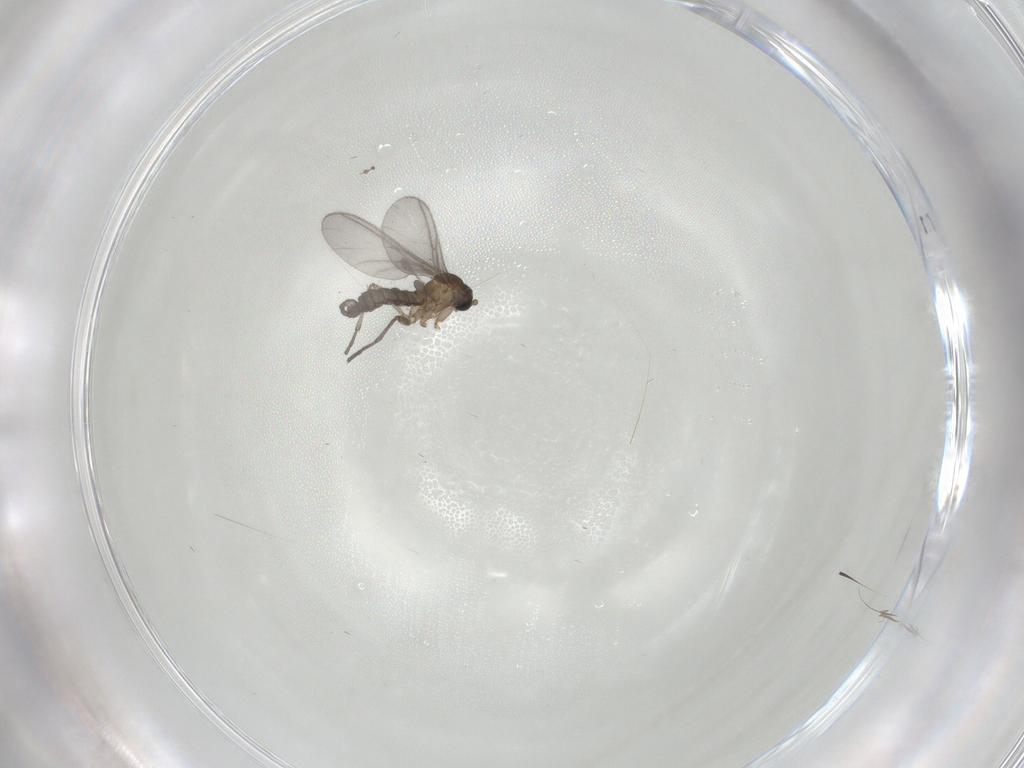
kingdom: Animalia
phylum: Arthropoda
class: Insecta
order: Diptera
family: Sciaridae
